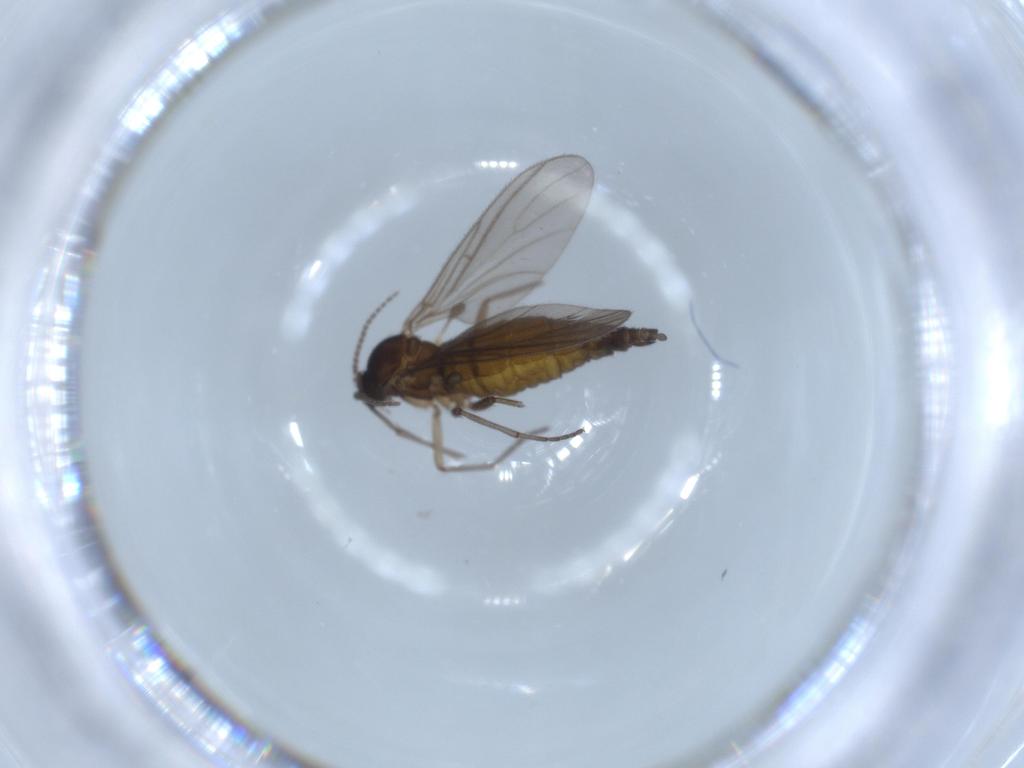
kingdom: Animalia
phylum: Arthropoda
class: Insecta
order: Diptera
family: Sciaridae
